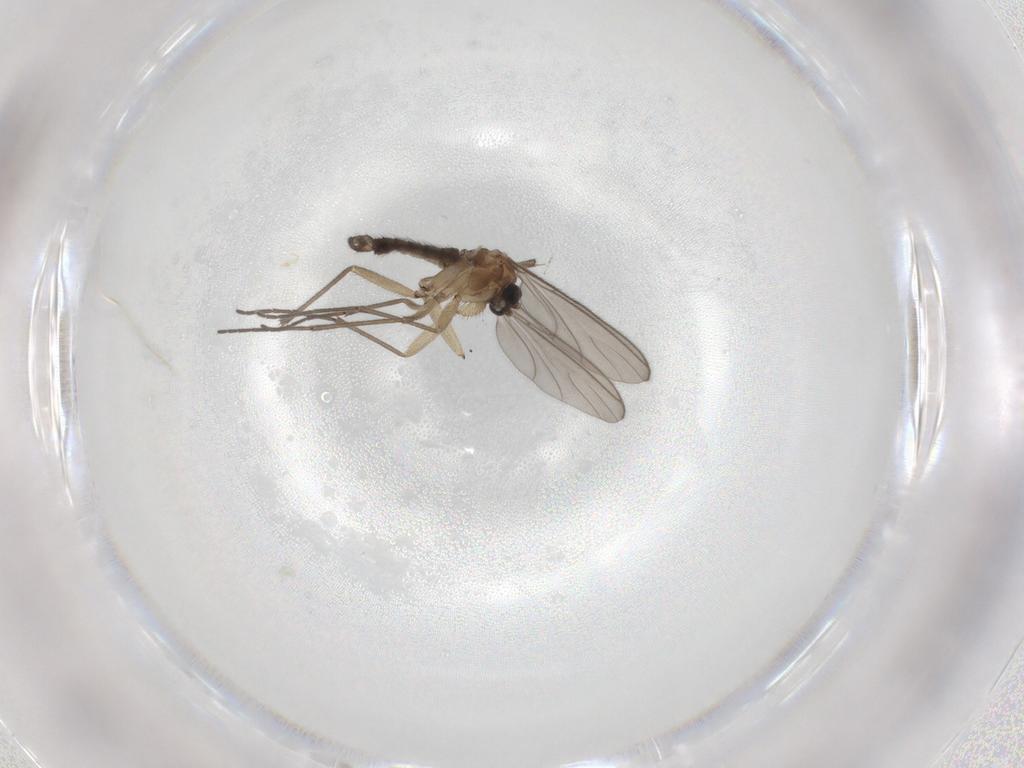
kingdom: Animalia
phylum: Arthropoda
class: Insecta
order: Diptera
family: Sciaridae
